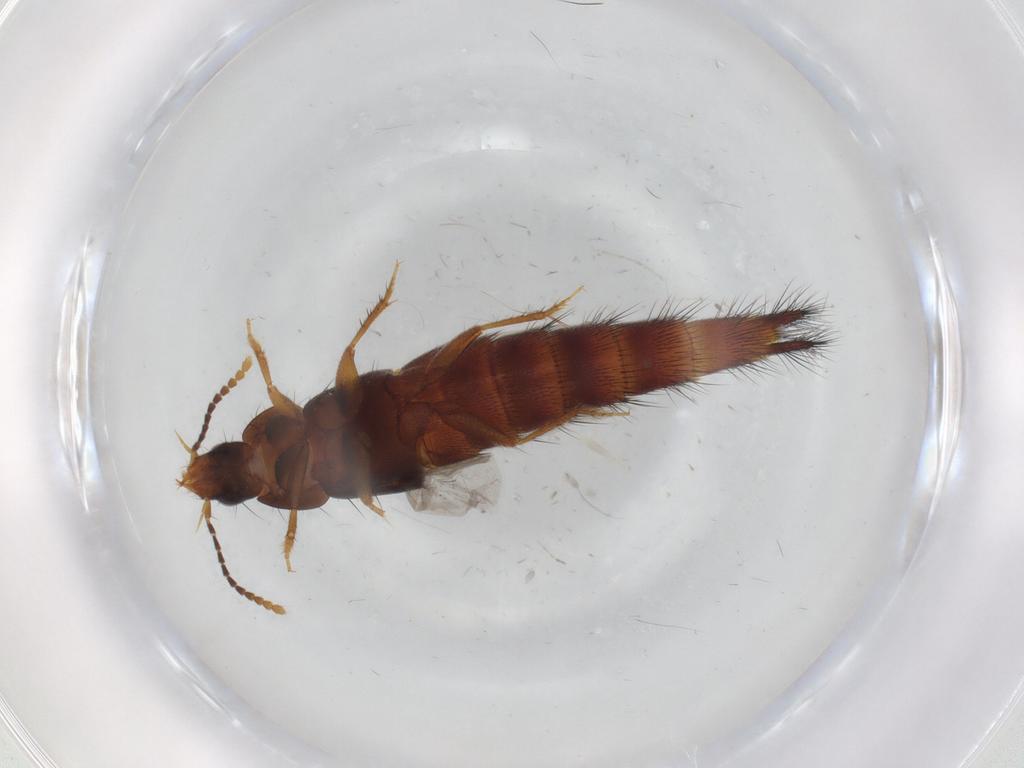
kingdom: Animalia
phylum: Arthropoda
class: Insecta
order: Coleoptera
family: Staphylinidae
